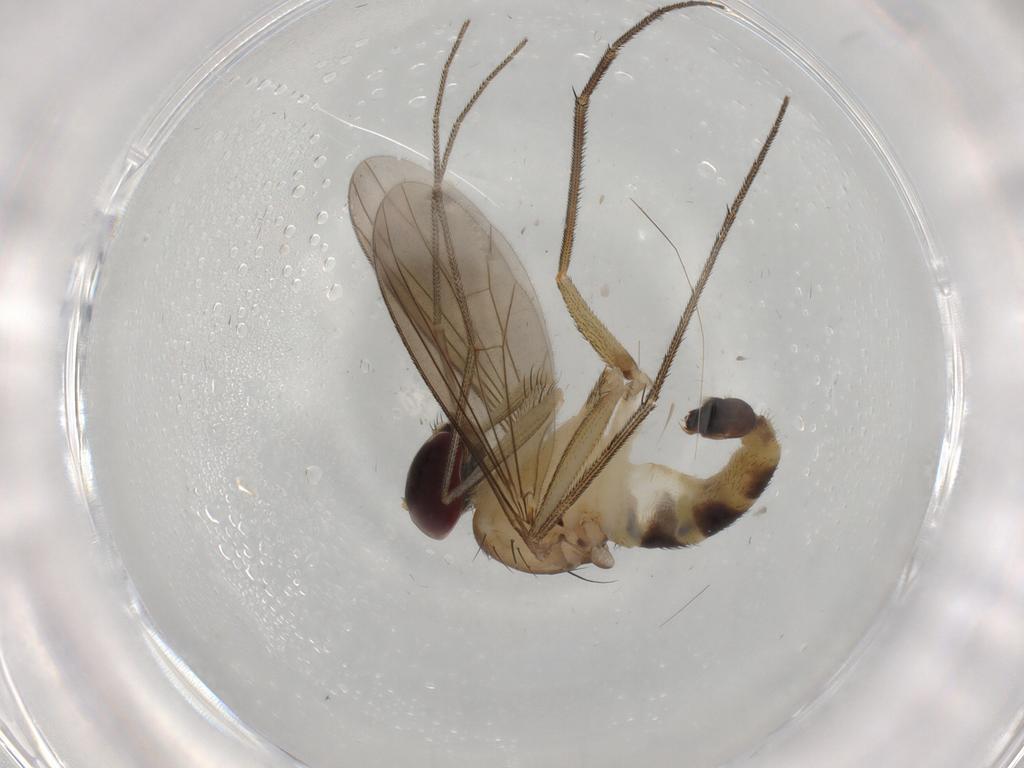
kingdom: Animalia
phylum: Arthropoda
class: Insecta
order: Diptera
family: Dolichopodidae
